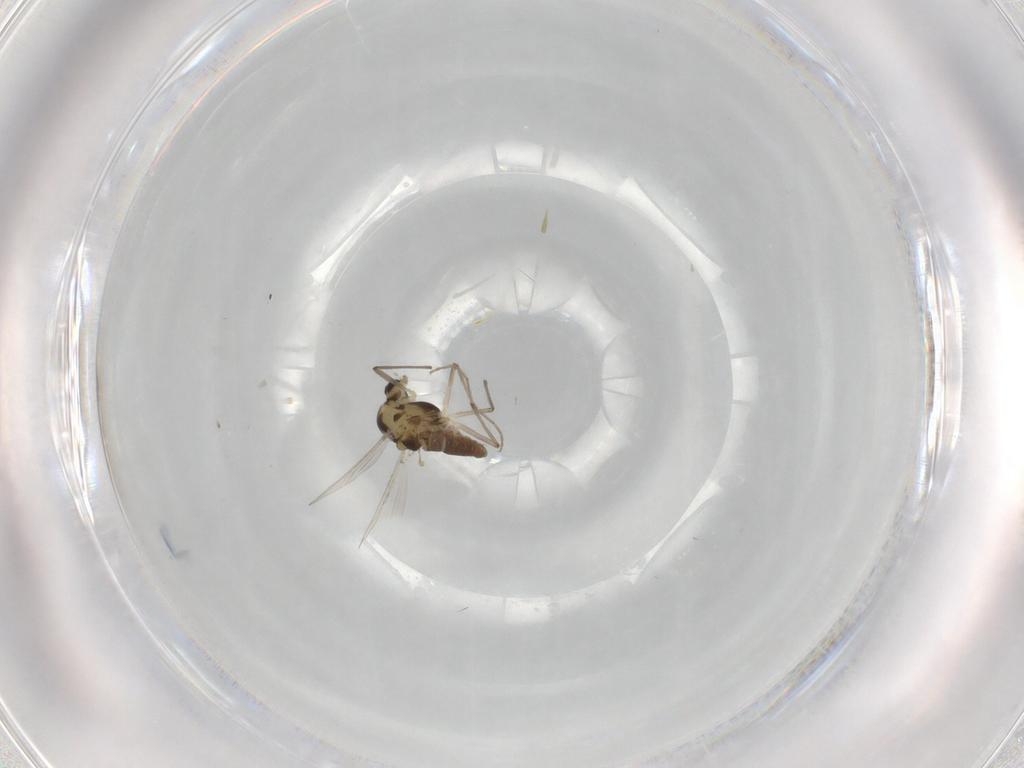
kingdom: Animalia
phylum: Arthropoda
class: Insecta
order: Diptera
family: Chironomidae
